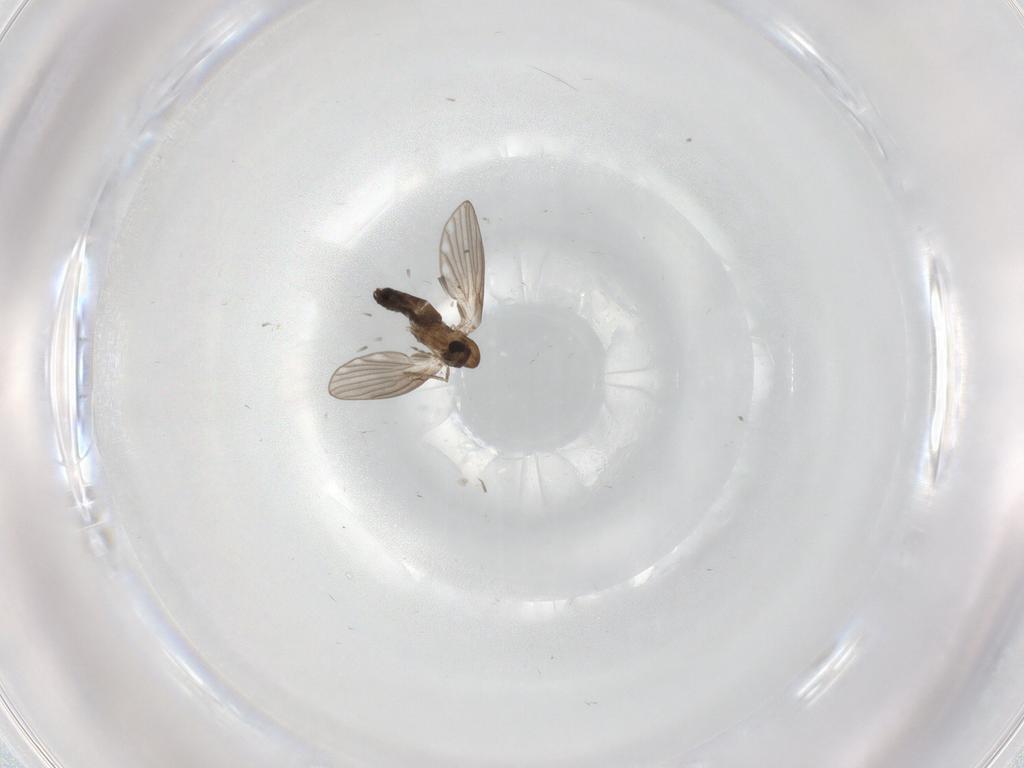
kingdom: Animalia
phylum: Arthropoda
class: Insecta
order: Diptera
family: Psychodidae
